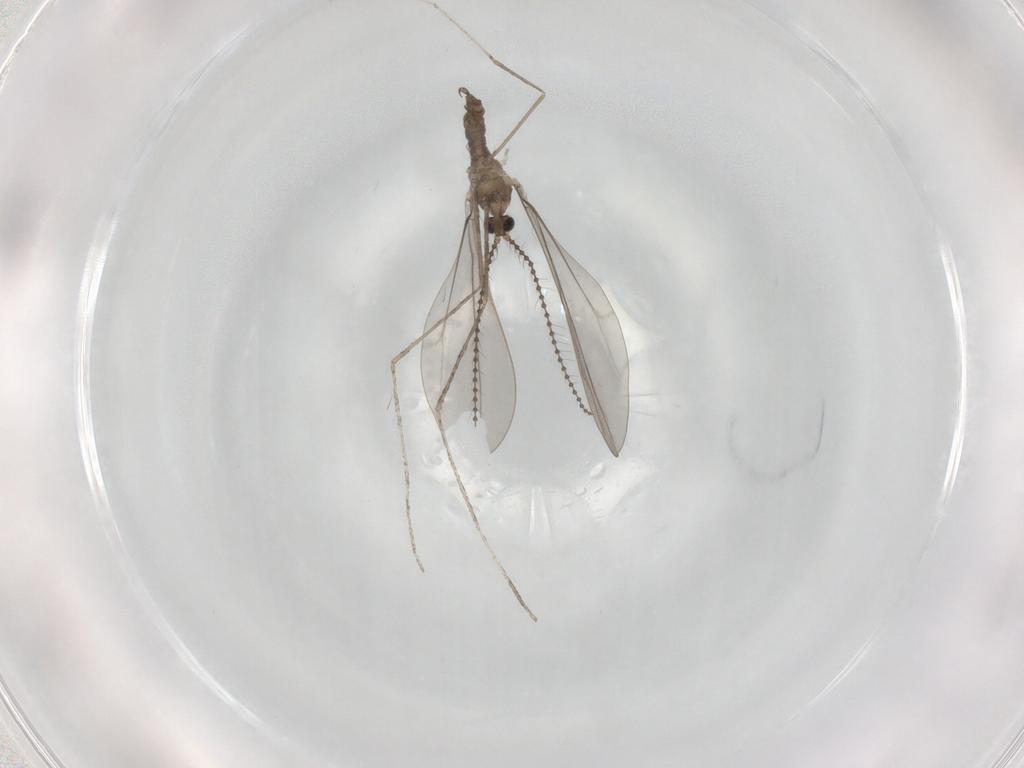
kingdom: Animalia
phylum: Arthropoda
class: Insecta
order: Diptera
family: Cecidomyiidae
